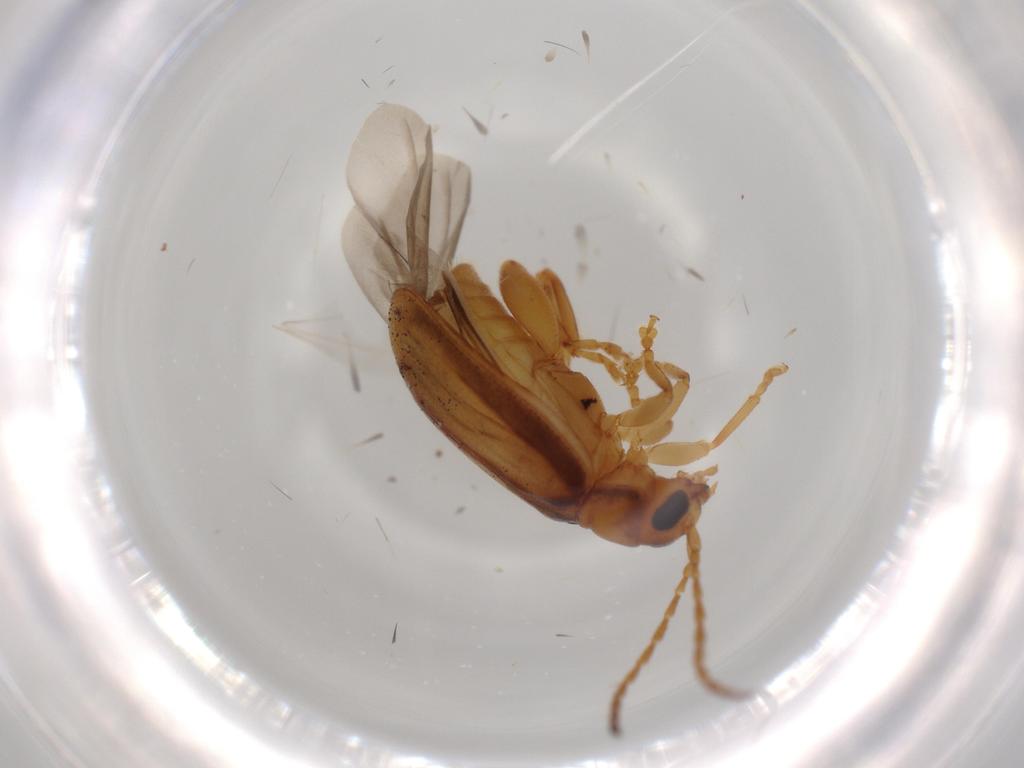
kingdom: Animalia
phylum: Arthropoda
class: Insecta
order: Coleoptera
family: Chrysomelidae
